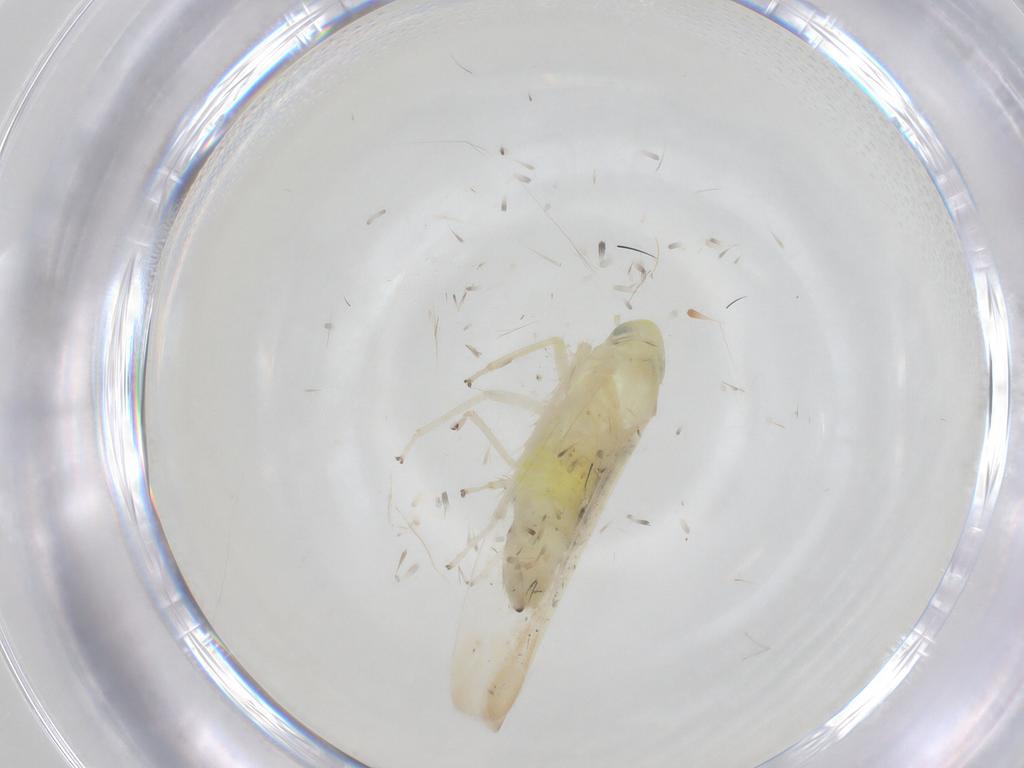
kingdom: Animalia
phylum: Arthropoda
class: Insecta
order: Hemiptera
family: Cicadellidae
